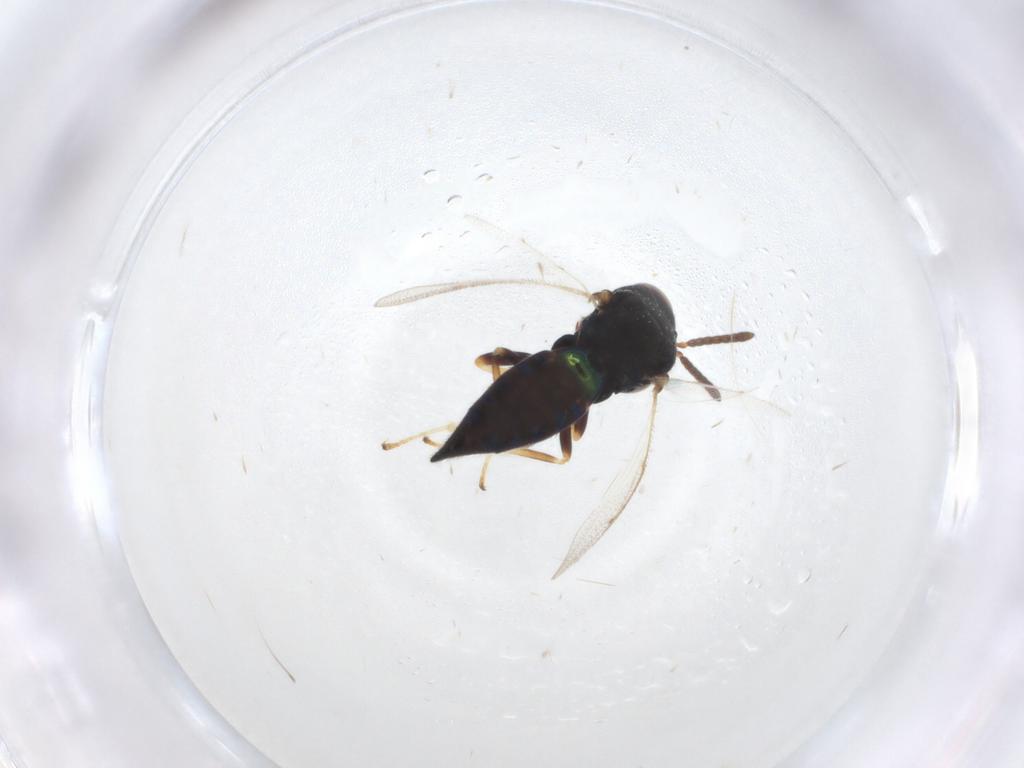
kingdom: Animalia
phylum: Arthropoda
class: Insecta
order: Hymenoptera
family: Pteromalidae
